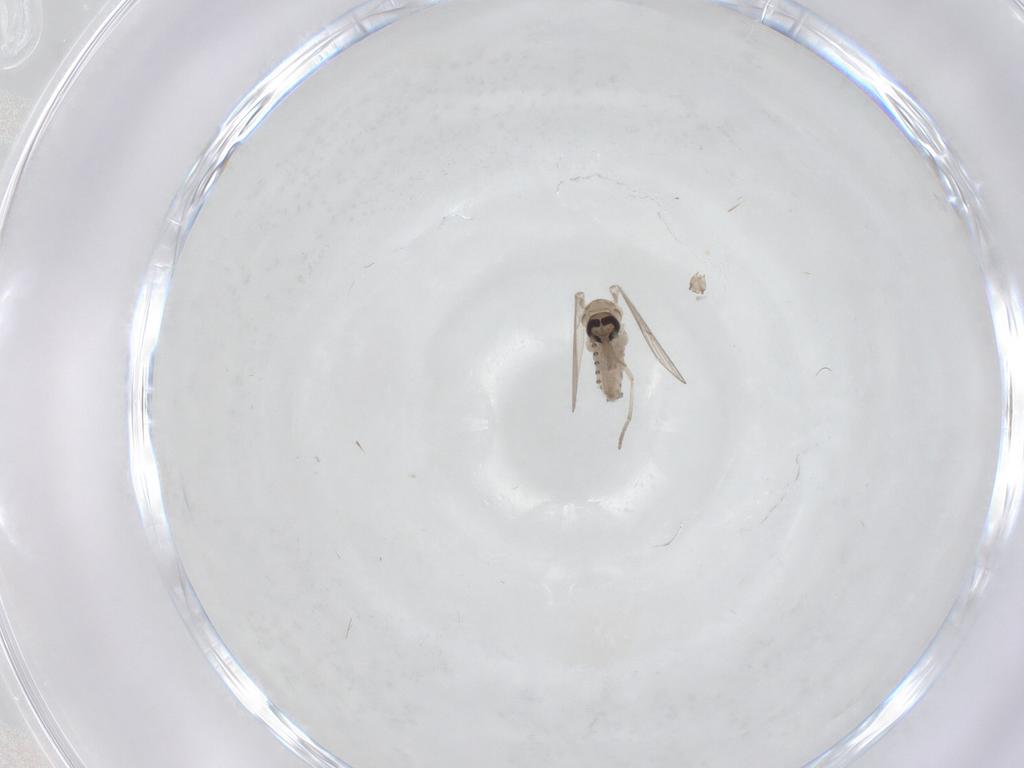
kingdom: Animalia
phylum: Arthropoda
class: Insecta
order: Diptera
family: Psychodidae
